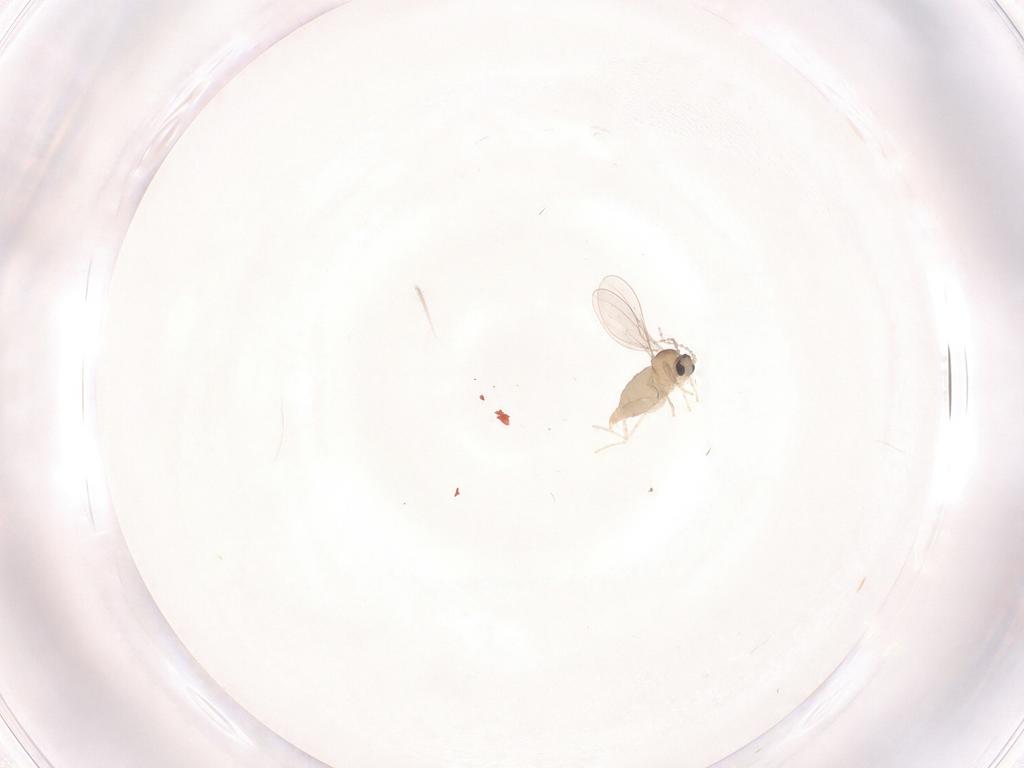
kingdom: Animalia
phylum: Arthropoda
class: Insecta
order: Diptera
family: Cecidomyiidae
